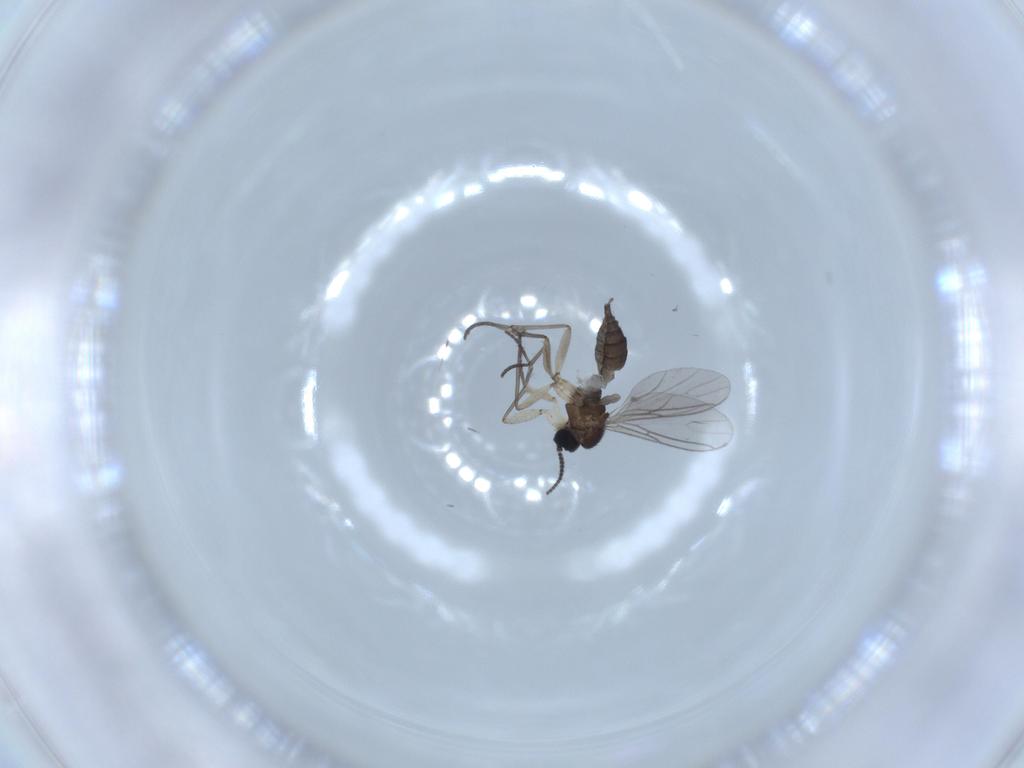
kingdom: Animalia
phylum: Arthropoda
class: Insecta
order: Diptera
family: Sciaridae
